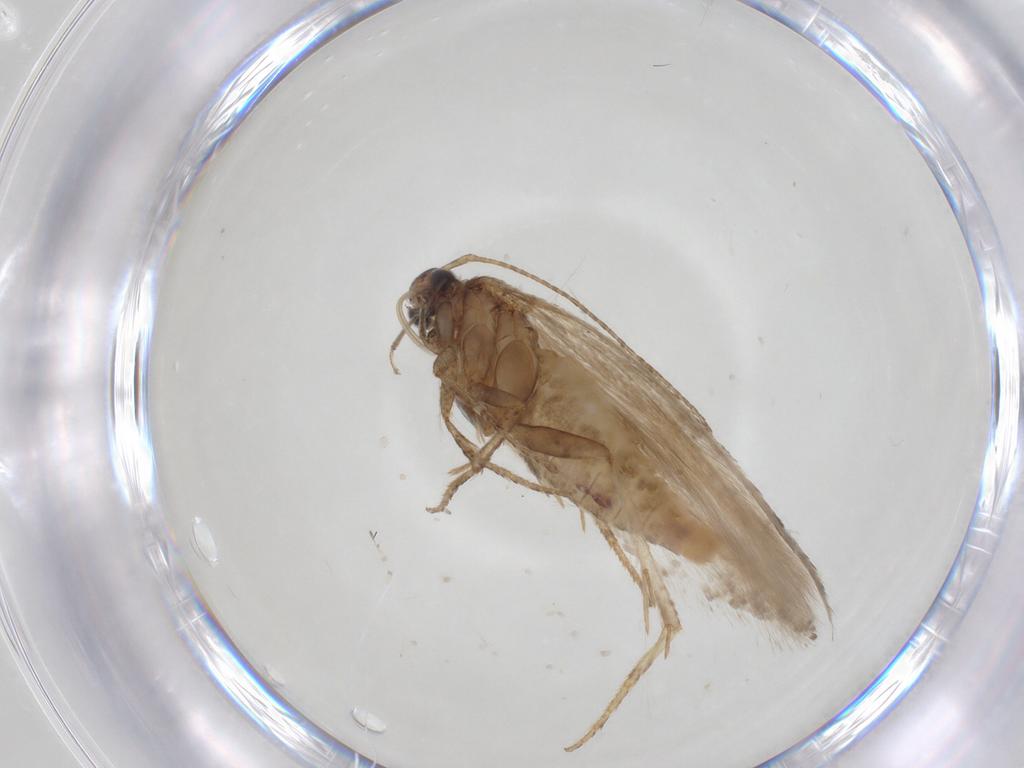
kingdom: Animalia
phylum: Arthropoda
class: Insecta
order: Lepidoptera
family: Gelechiidae
